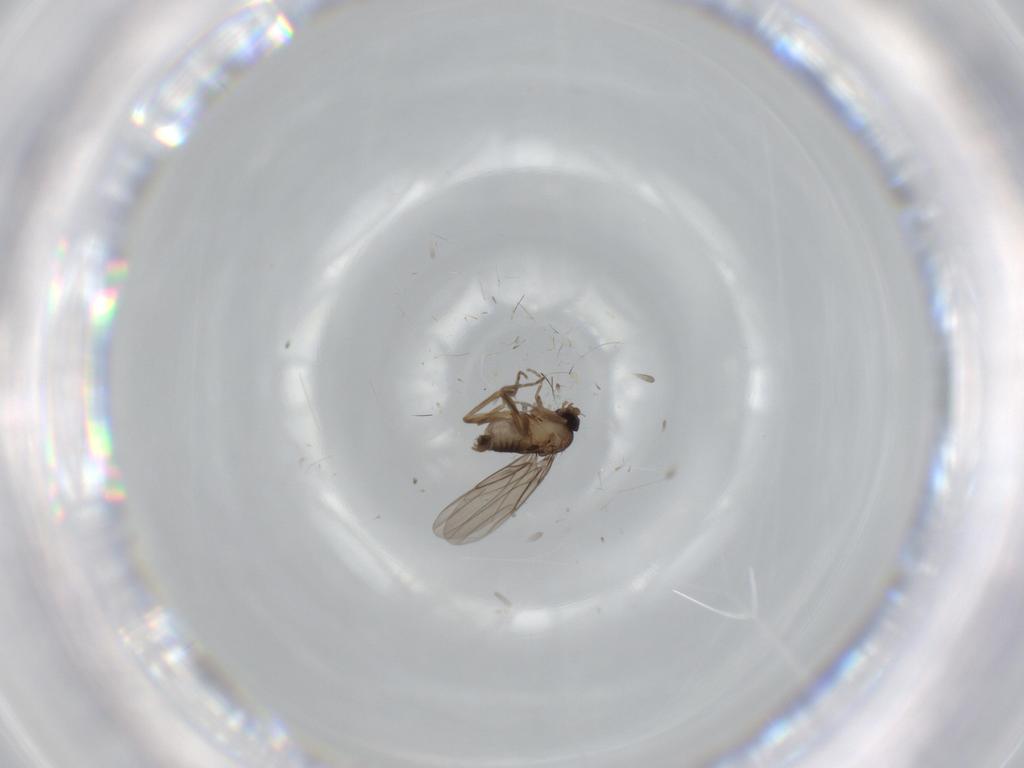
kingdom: Animalia
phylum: Arthropoda
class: Insecta
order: Diptera
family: Phoridae
